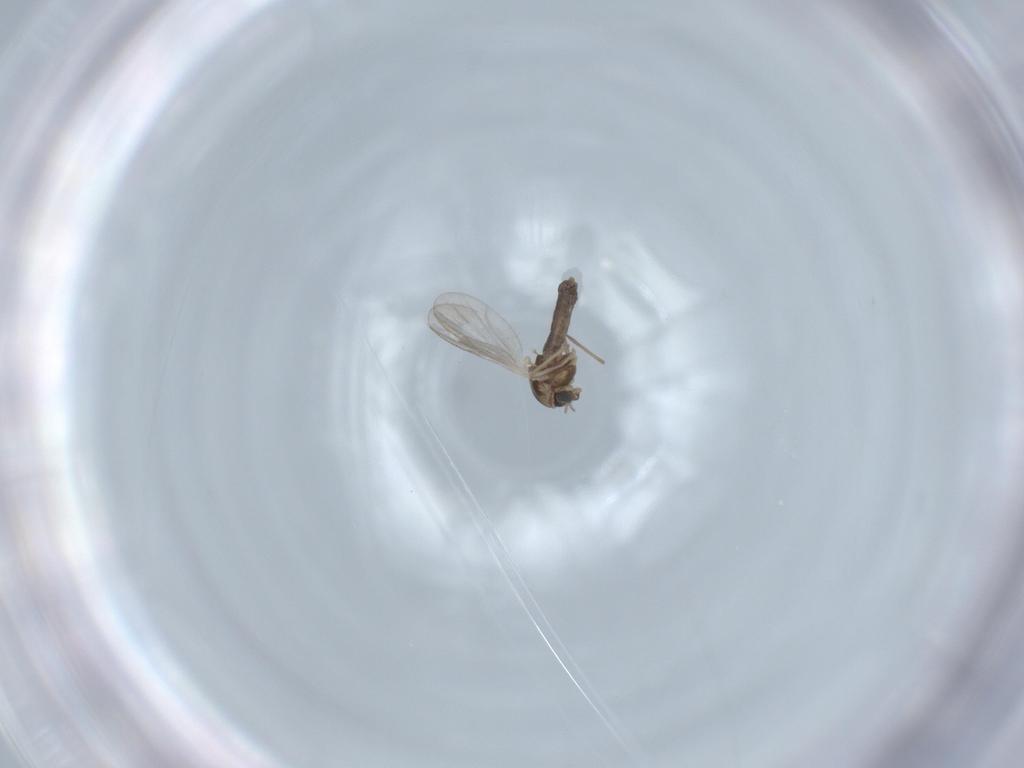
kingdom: Animalia
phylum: Arthropoda
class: Insecta
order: Diptera
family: Chironomidae
